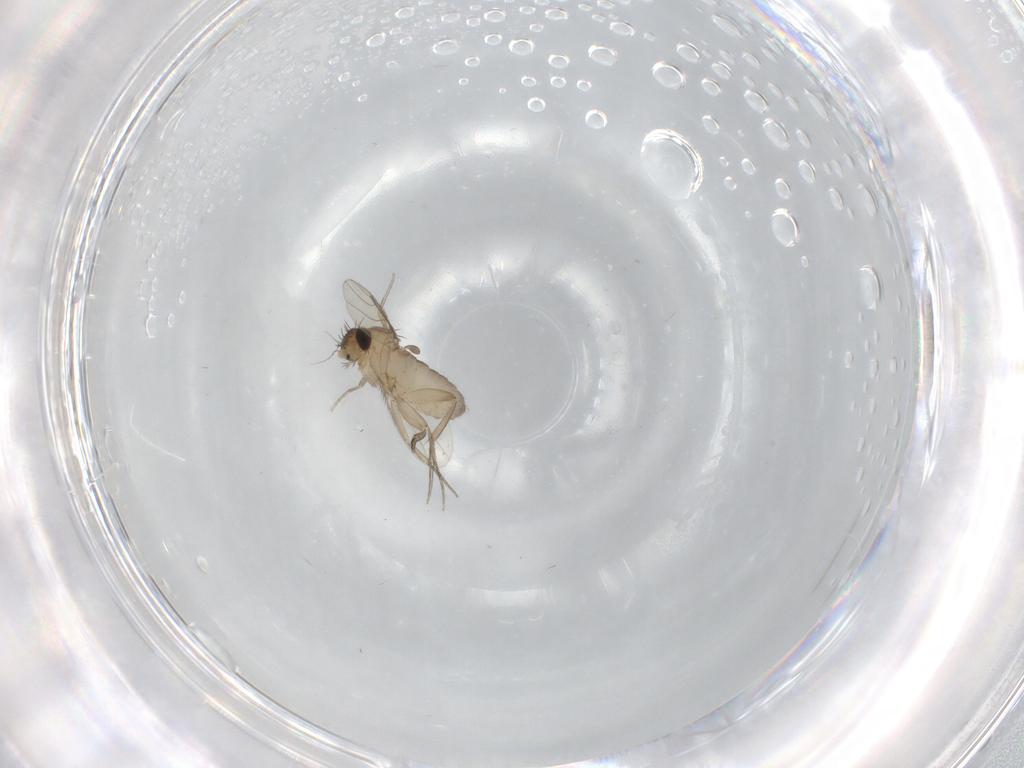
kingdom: Animalia
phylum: Arthropoda
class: Insecta
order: Diptera
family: Phoridae
